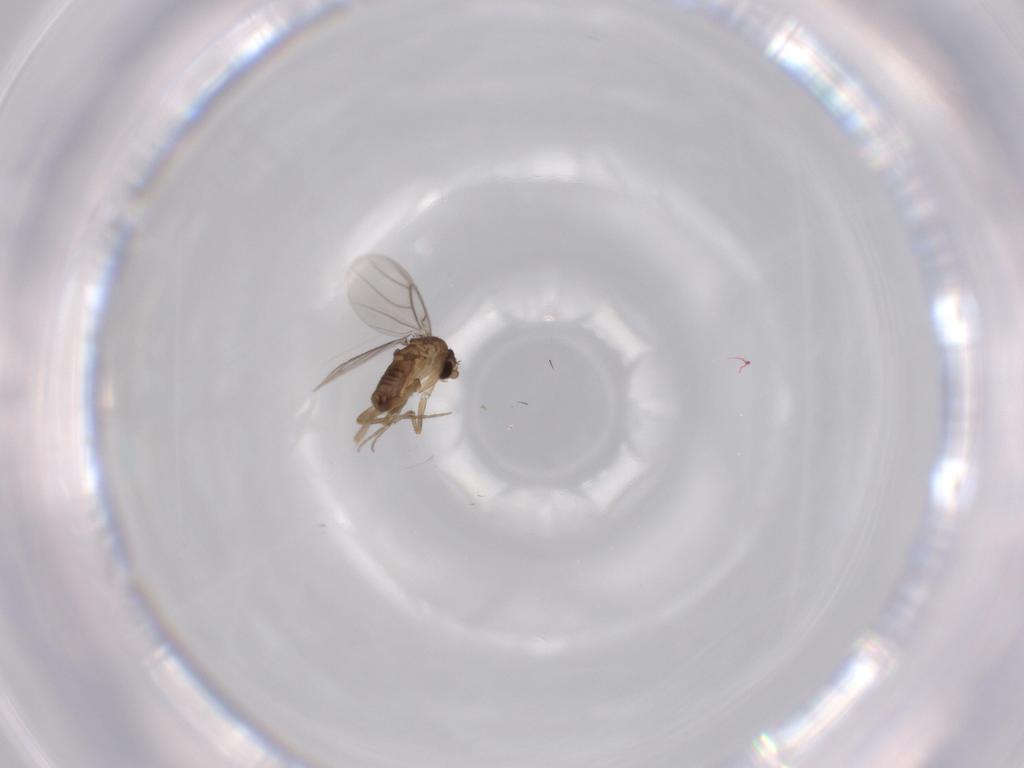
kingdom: Animalia
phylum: Arthropoda
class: Insecta
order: Diptera
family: Phoridae
